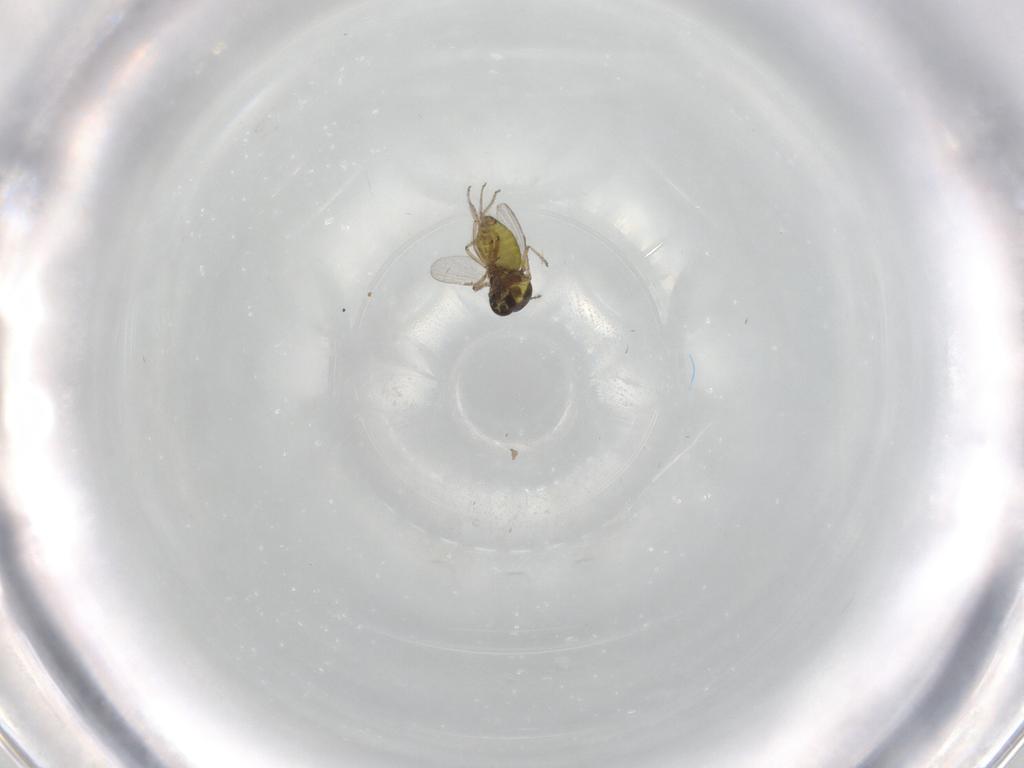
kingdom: Animalia
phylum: Arthropoda
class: Insecta
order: Diptera
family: Ceratopogonidae
